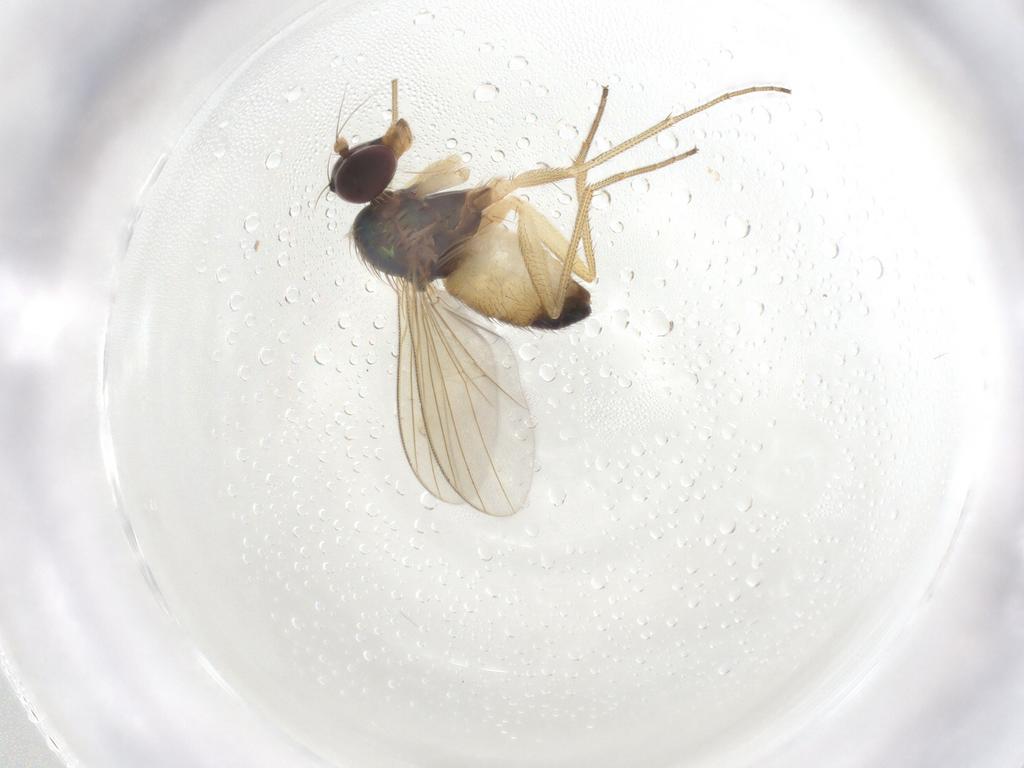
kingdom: Animalia
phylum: Arthropoda
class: Insecta
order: Diptera
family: Dolichopodidae
